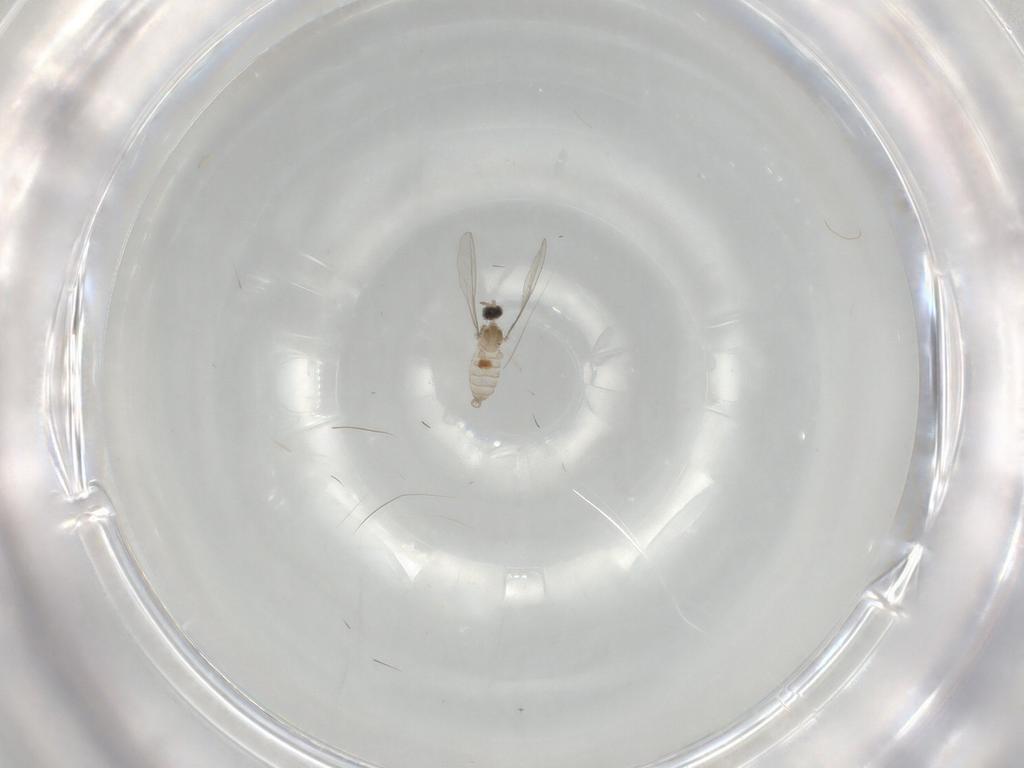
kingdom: Animalia
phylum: Arthropoda
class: Insecta
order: Diptera
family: Cecidomyiidae
